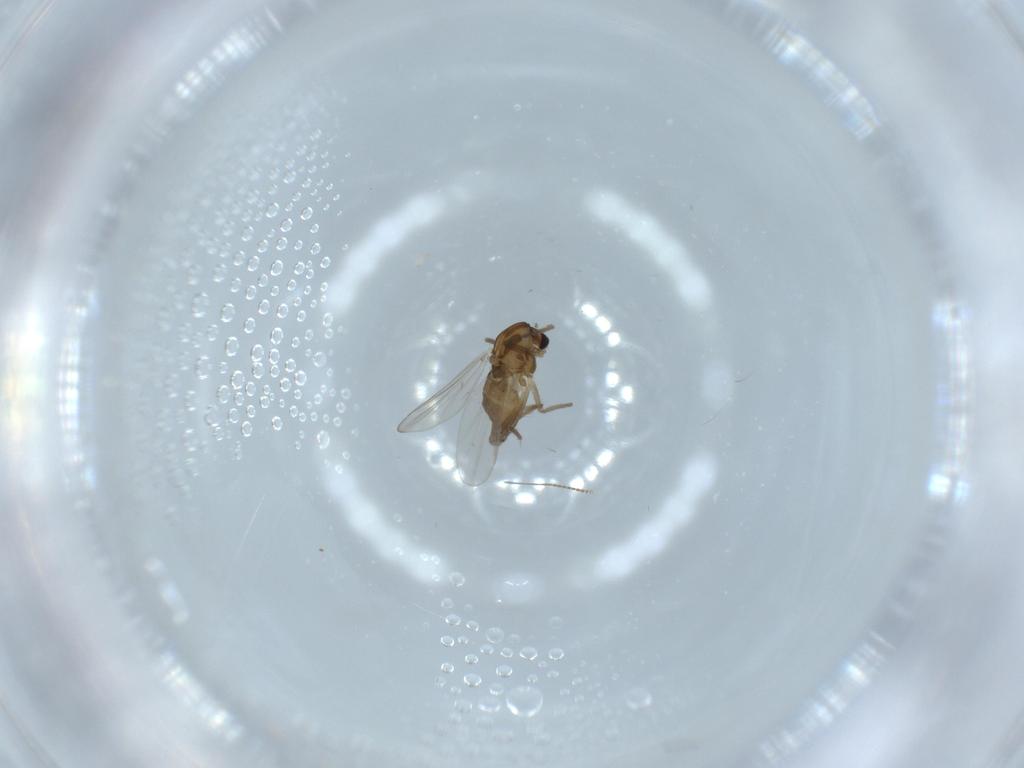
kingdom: Animalia
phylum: Arthropoda
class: Insecta
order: Diptera
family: Chironomidae
